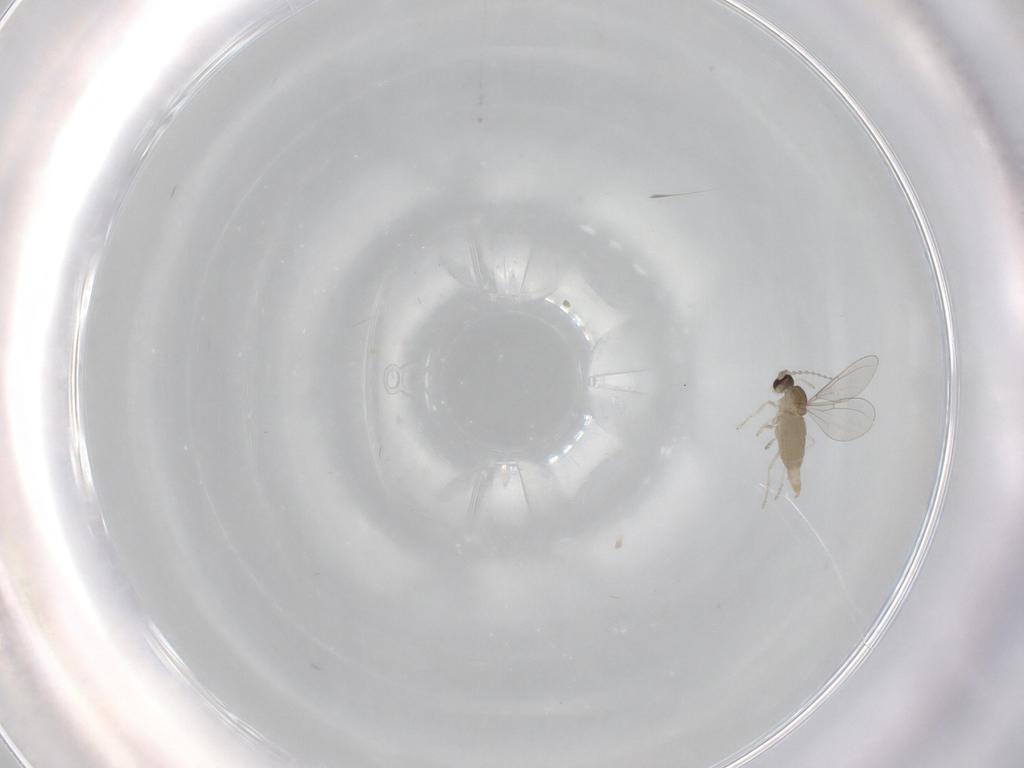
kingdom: Animalia
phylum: Arthropoda
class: Insecta
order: Diptera
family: Cecidomyiidae
